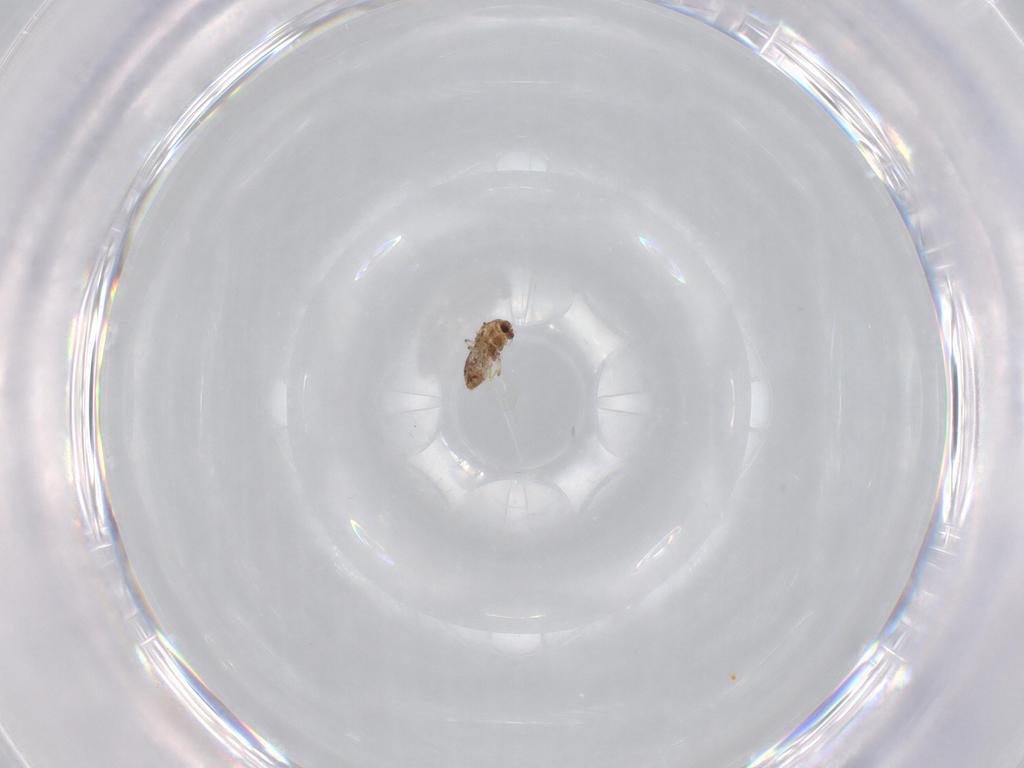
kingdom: Animalia
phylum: Arthropoda
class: Insecta
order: Diptera
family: Chironomidae
